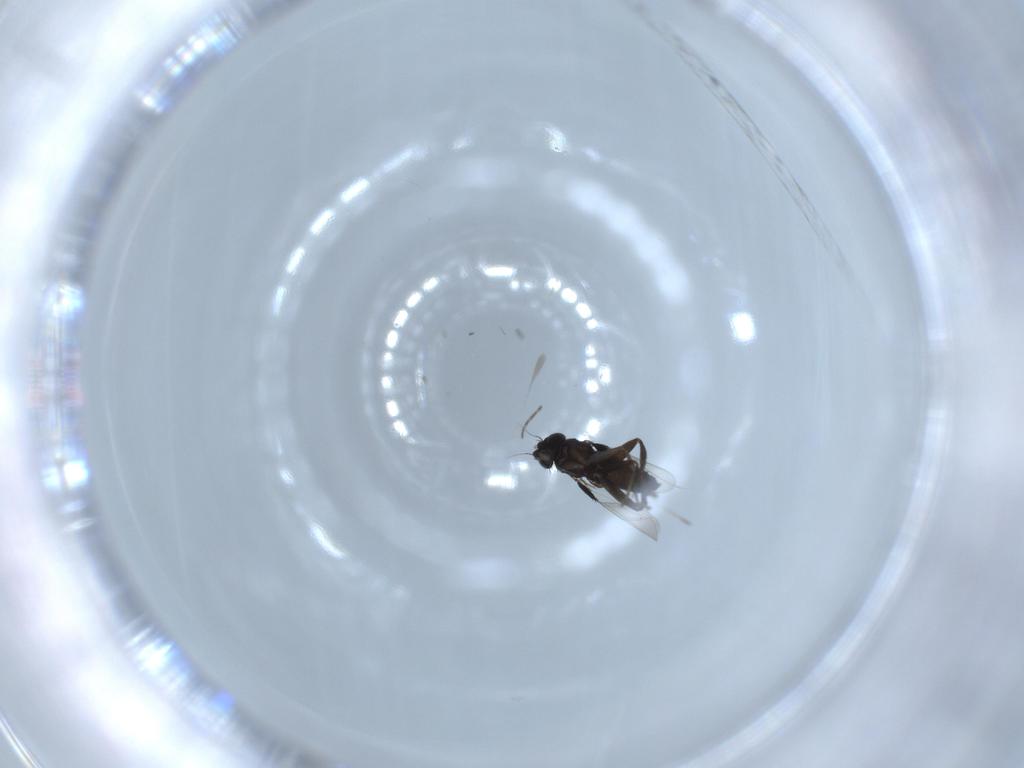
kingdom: Animalia
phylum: Arthropoda
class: Insecta
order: Diptera
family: Phoridae
